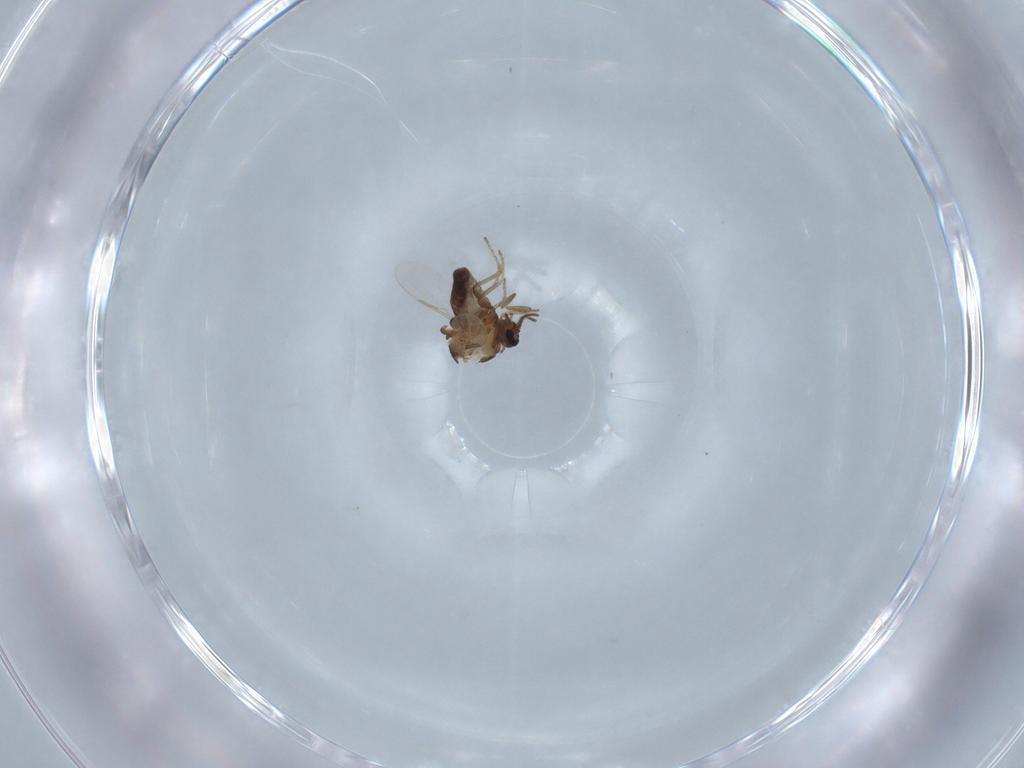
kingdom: Animalia
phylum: Arthropoda
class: Insecta
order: Diptera
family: Ceratopogonidae
